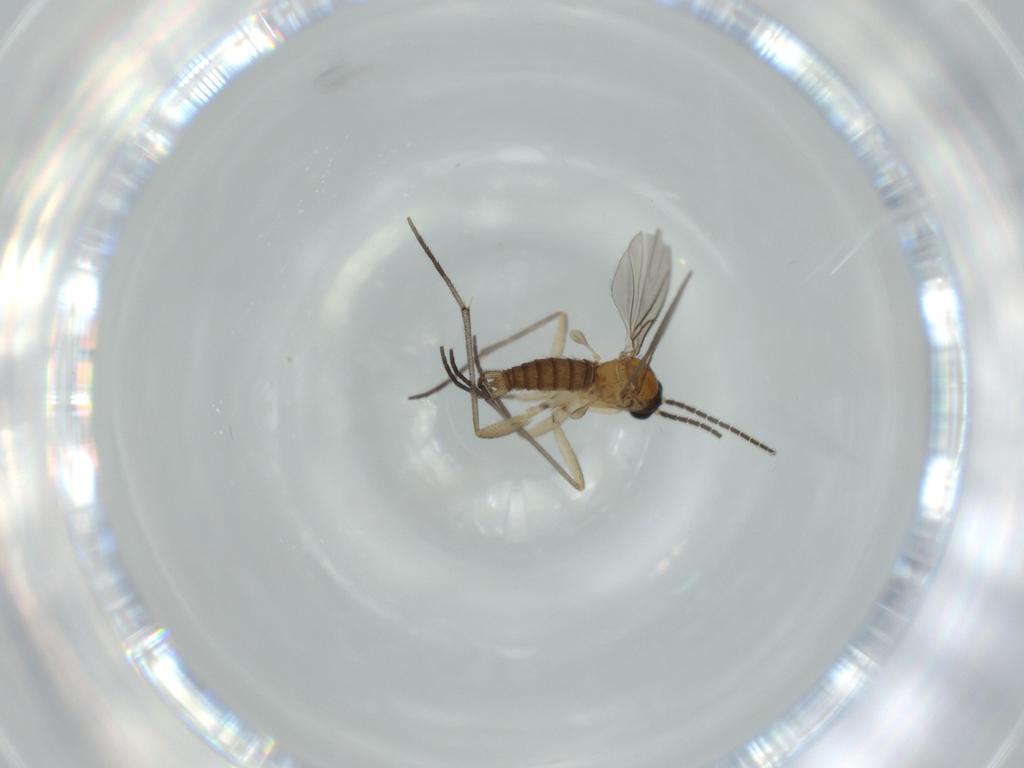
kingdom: Animalia
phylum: Arthropoda
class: Insecta
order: Diptera
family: Sciaridae
